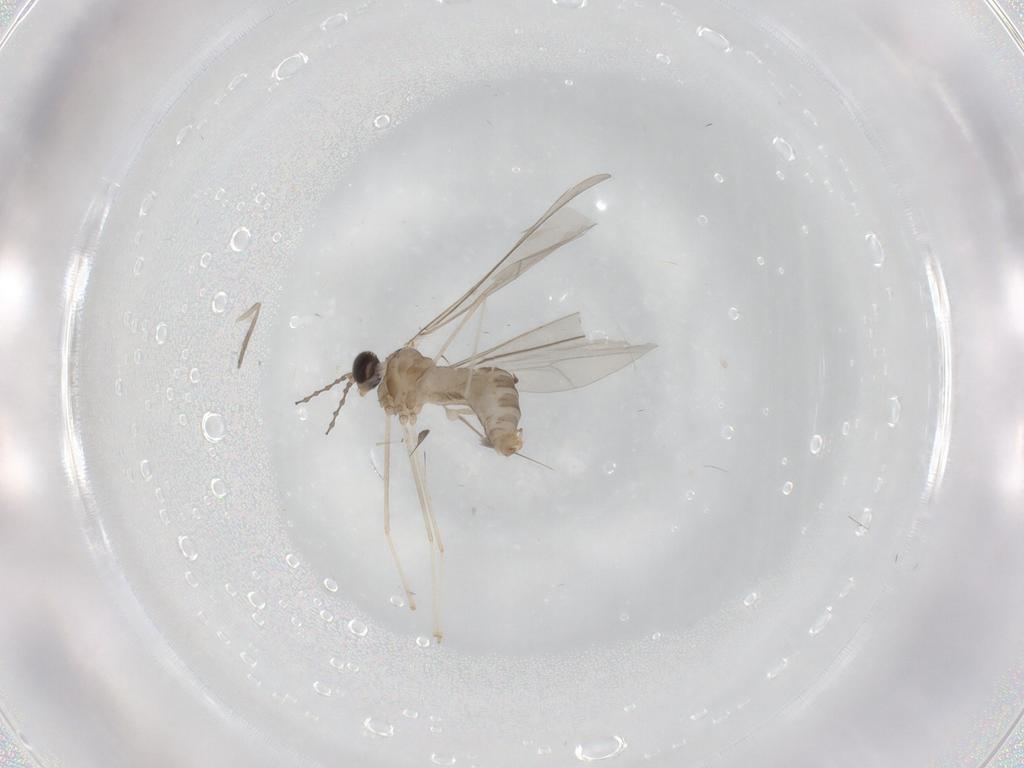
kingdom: Animalia
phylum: Arthropoda
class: Insecta
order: Diptera
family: Cecidomyiidae
